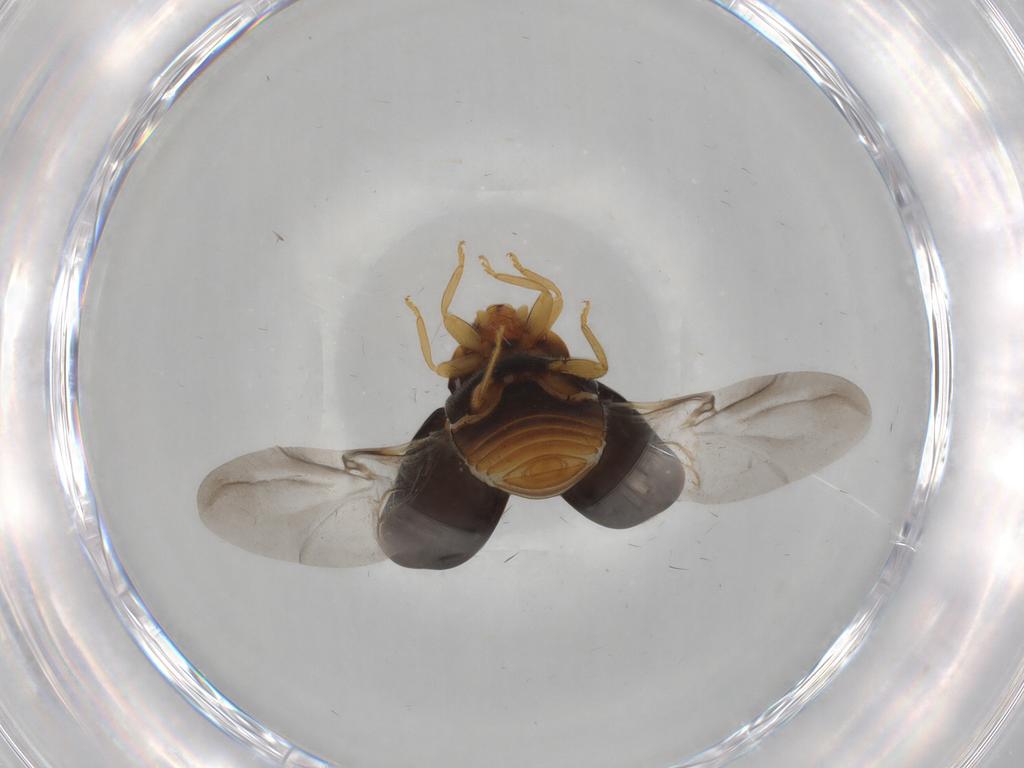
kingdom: Animalia
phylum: Arthropoda
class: Insecta
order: Coleoptera
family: Coccinellidae
